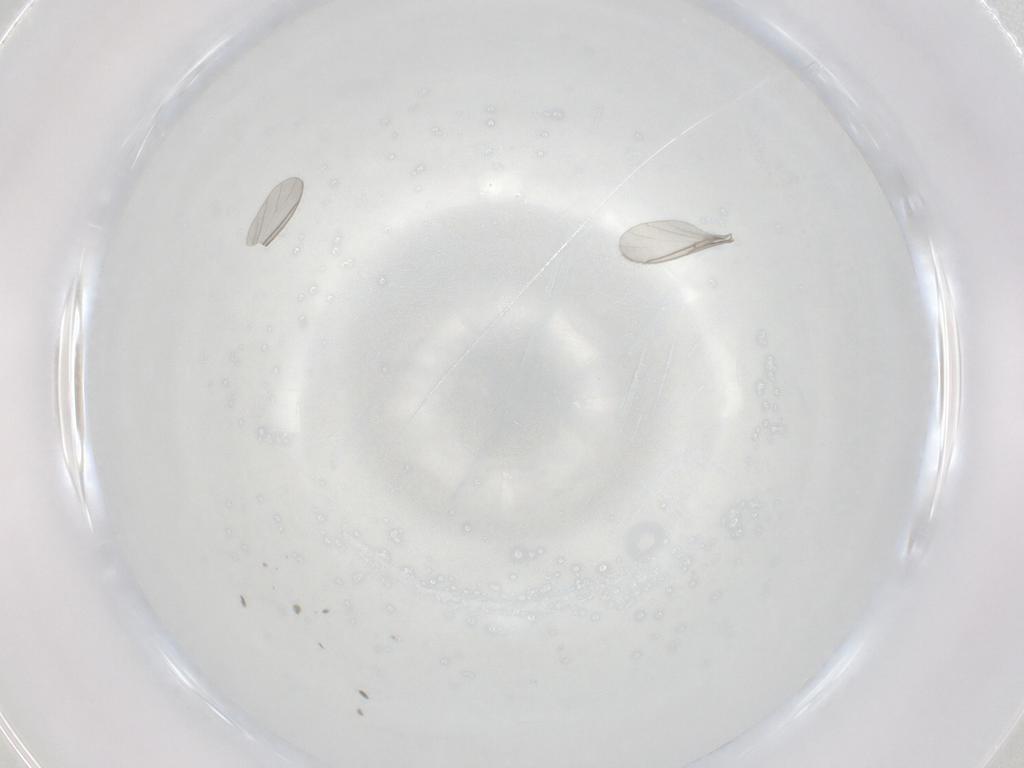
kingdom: Animalia
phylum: Arthropoda
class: Insecta
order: Diptera
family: Sciaridae
